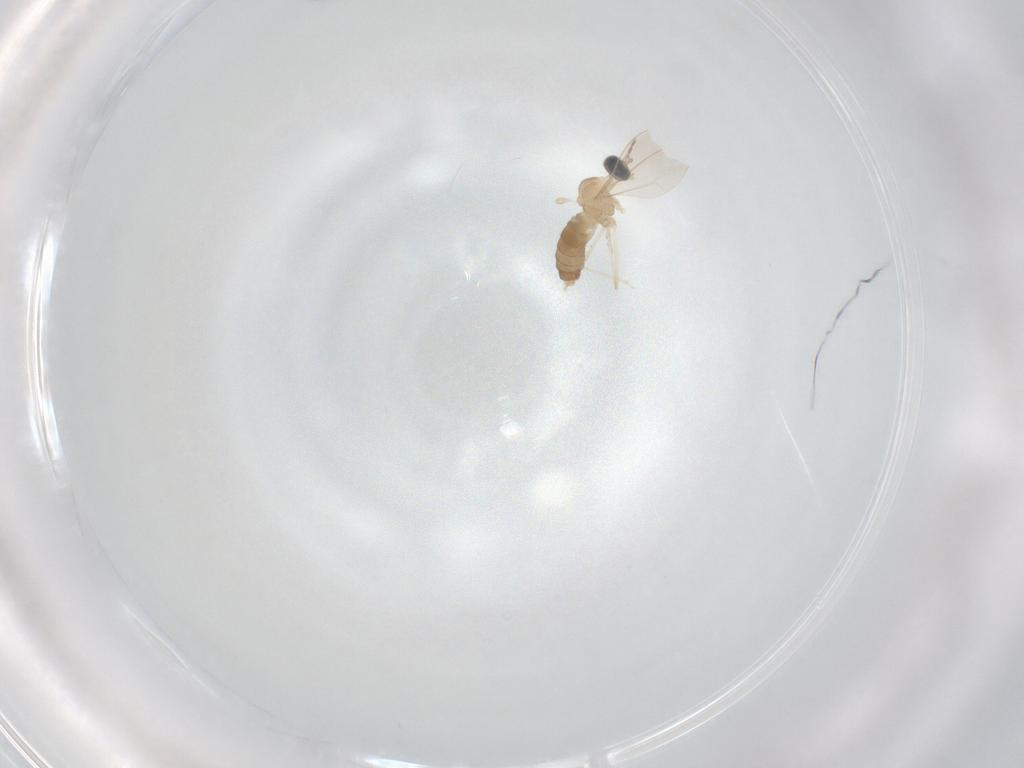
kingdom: Animalia
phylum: Arthropoda
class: Insecta
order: Diptera
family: Cecidomyiidae
